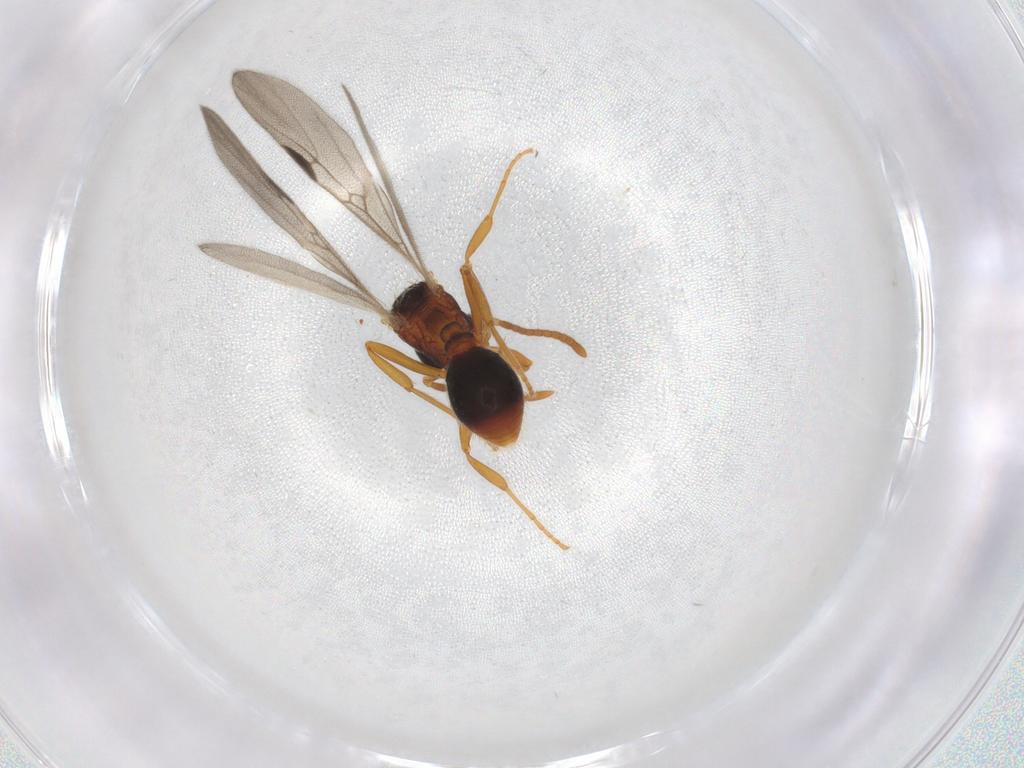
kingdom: Animalia
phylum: Arthropoda
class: Insecta
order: Hymenoptera
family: Formicidae
